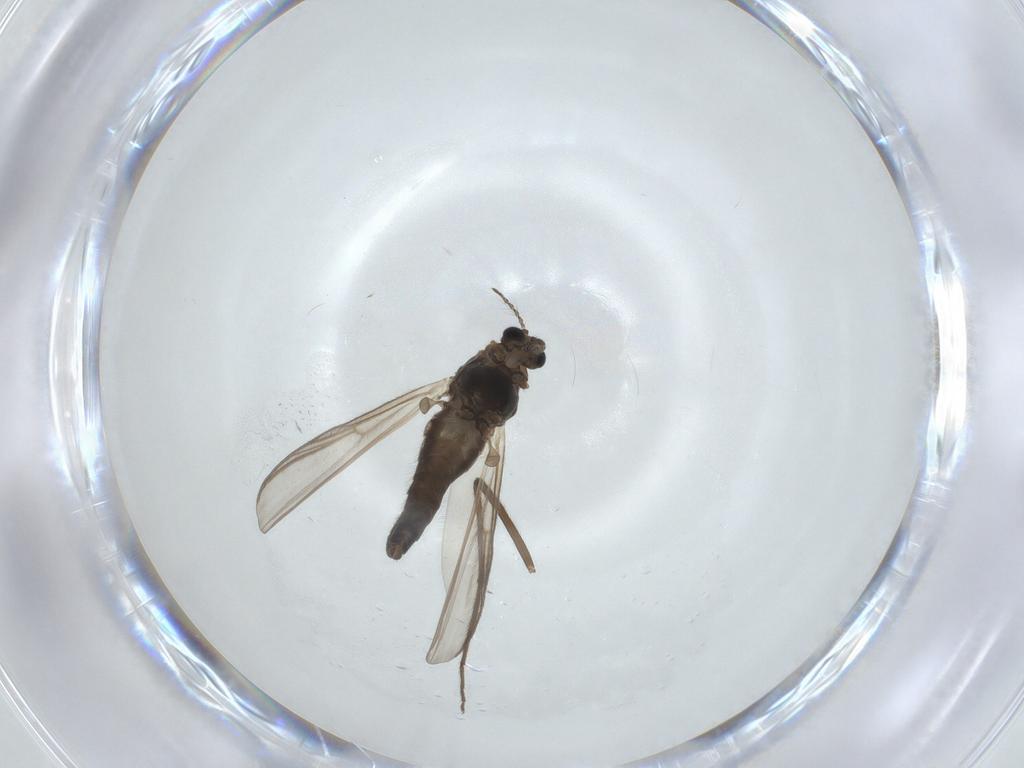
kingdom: Animalia
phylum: Arthropoda
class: Insecta
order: Diptera
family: Chironomidae
